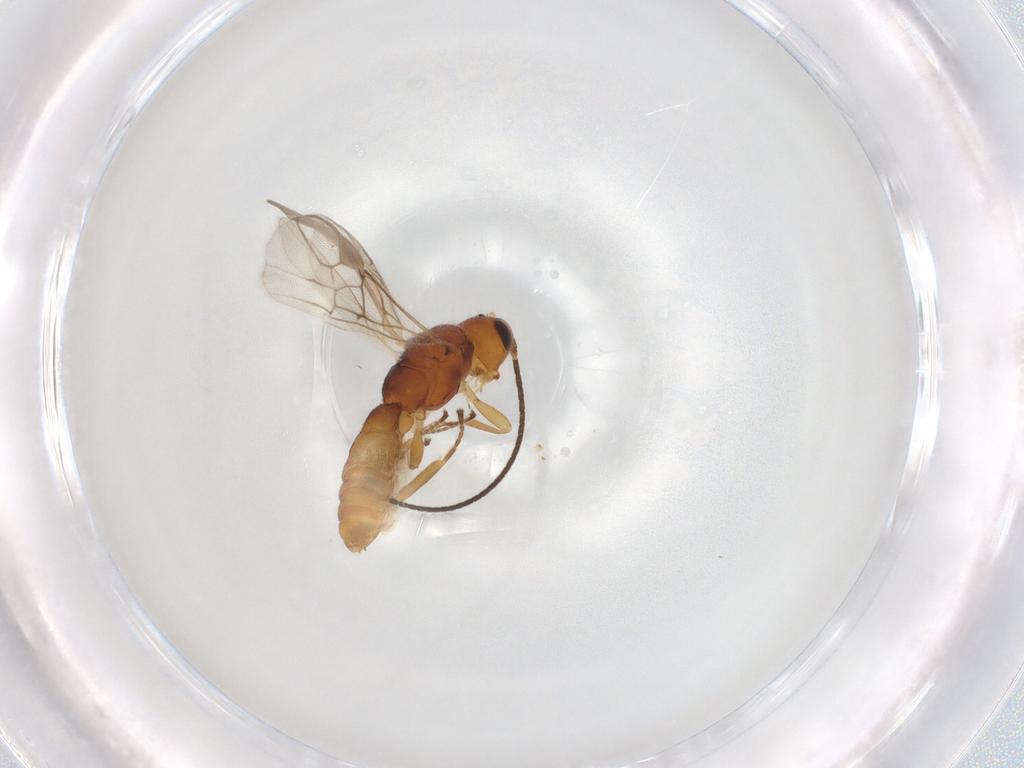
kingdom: Animalia
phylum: Arthropoda
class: Insecta
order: Hymenoptera
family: Braconidae
